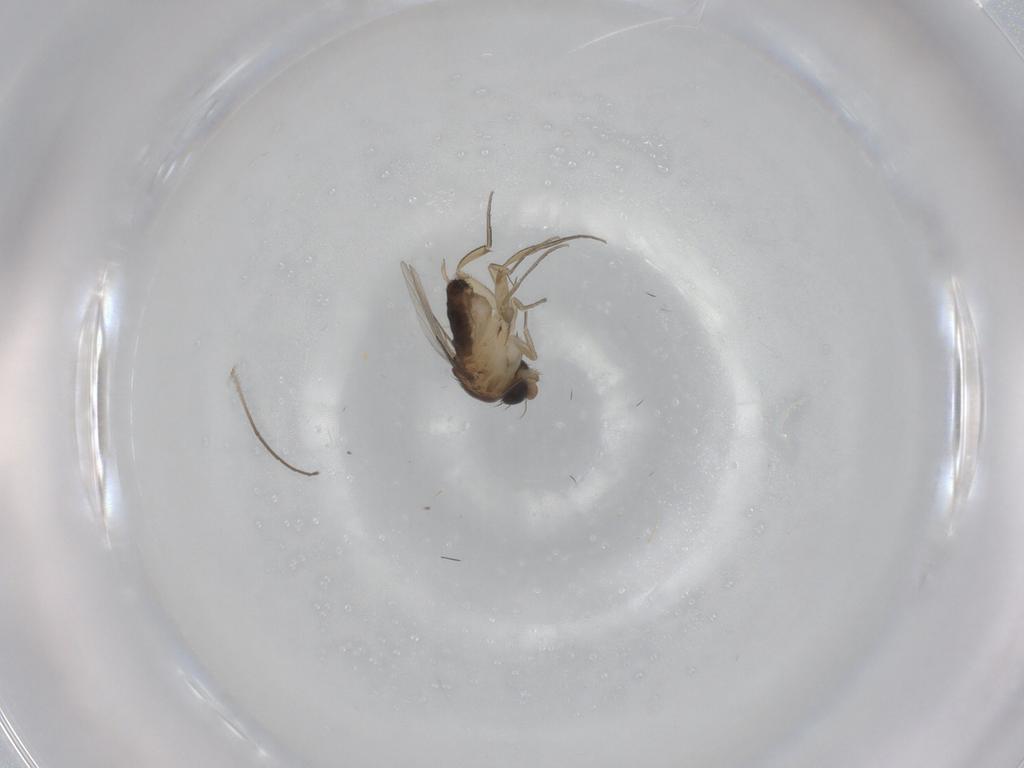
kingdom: Animalia
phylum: Arthropoda
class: Insecta
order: Diptera
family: Phoridae
